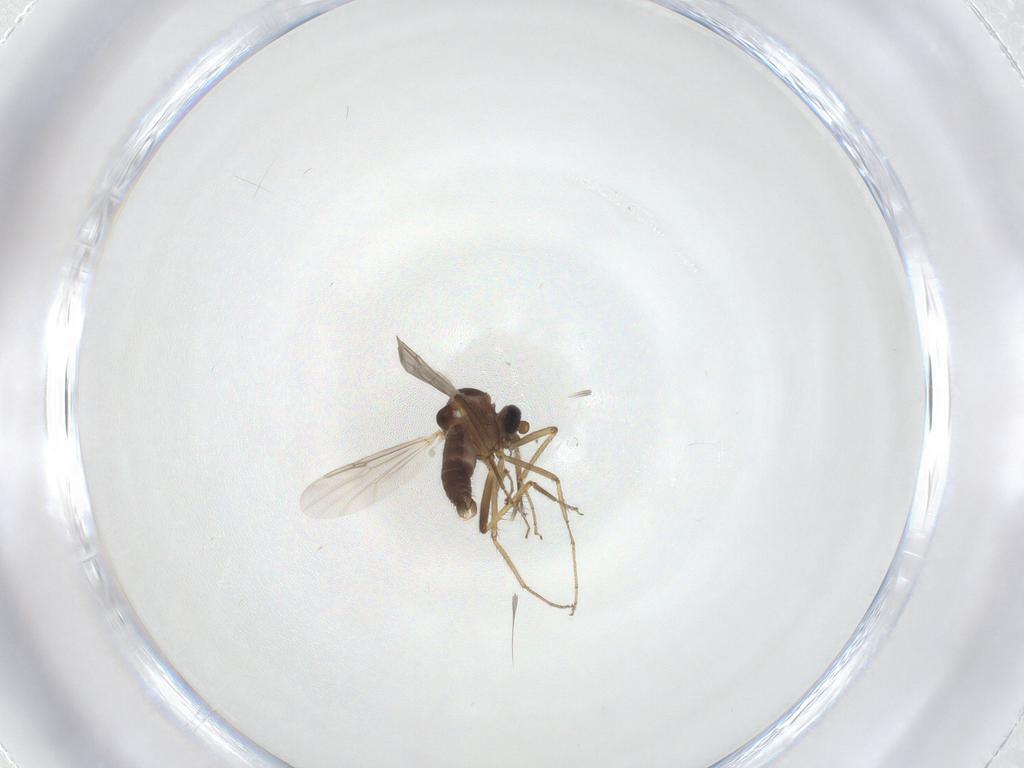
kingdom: Animalia
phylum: Arthropoda
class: Insecta
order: Diptera
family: Ceratopogonidae
